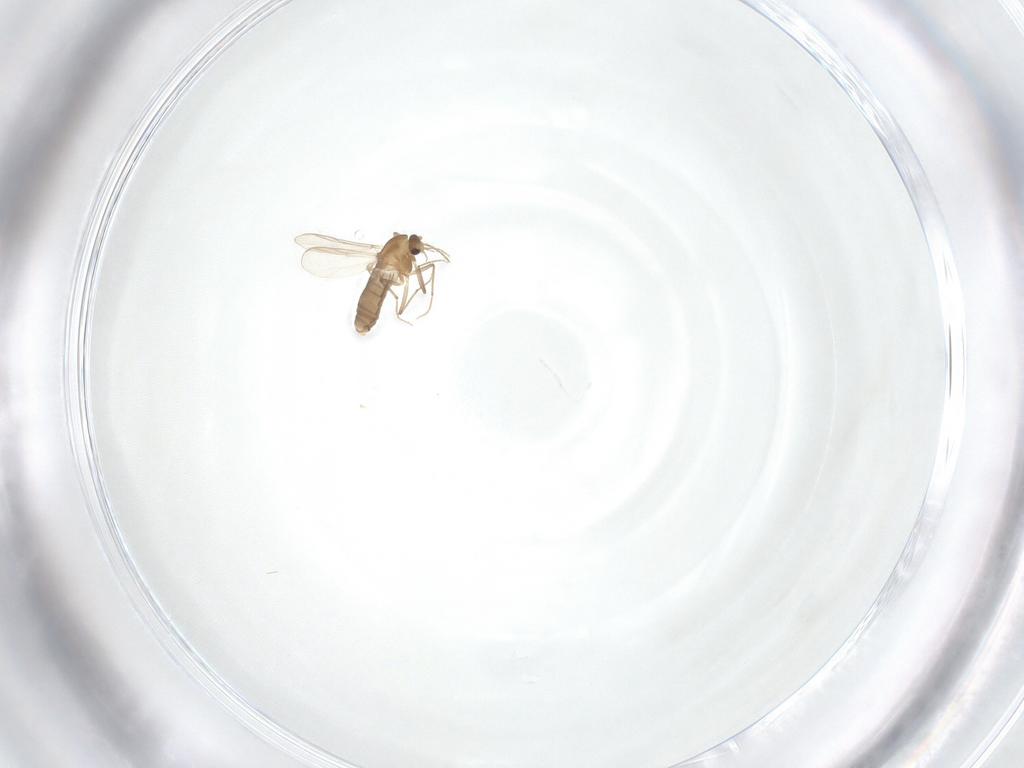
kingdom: Animalia
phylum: Arthropoda
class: Insecta
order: Diptera
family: Chironomidae
